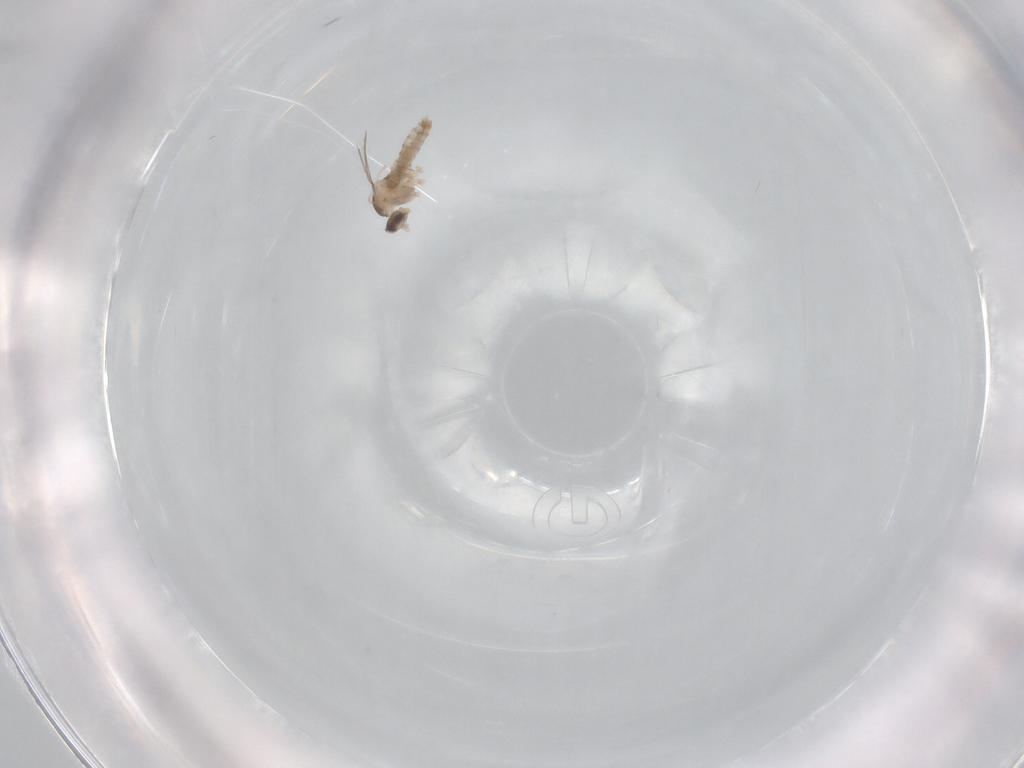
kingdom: Animalia
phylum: Arthropoda
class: Insecta
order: Diptera
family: Cecidomyiidae
